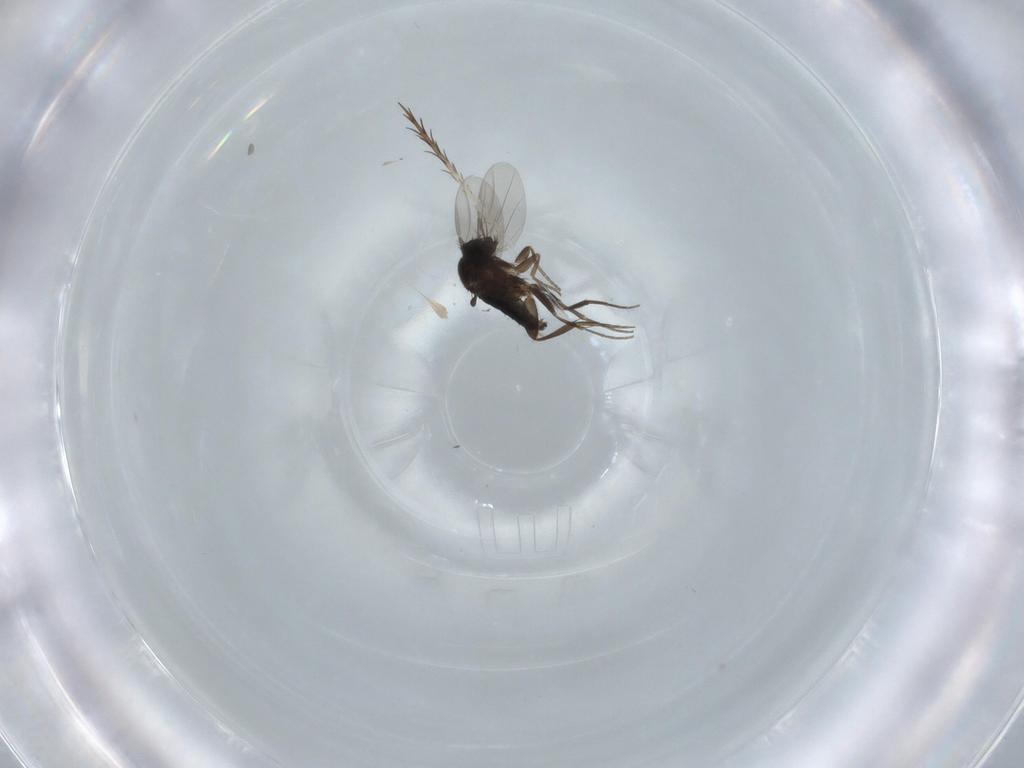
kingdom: Animalia
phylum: Arthropoda
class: Insecta
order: Diptera
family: Phoridae
